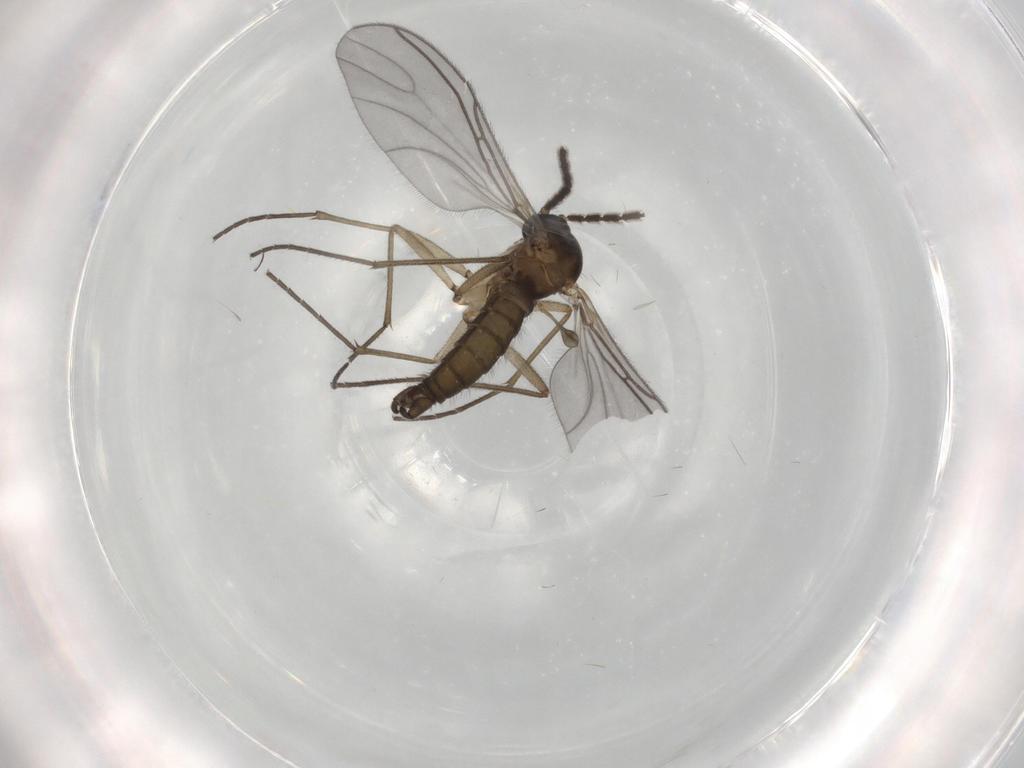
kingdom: Animalia
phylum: Arthropoda
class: Insecta
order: Diptera
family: Sciaridae
